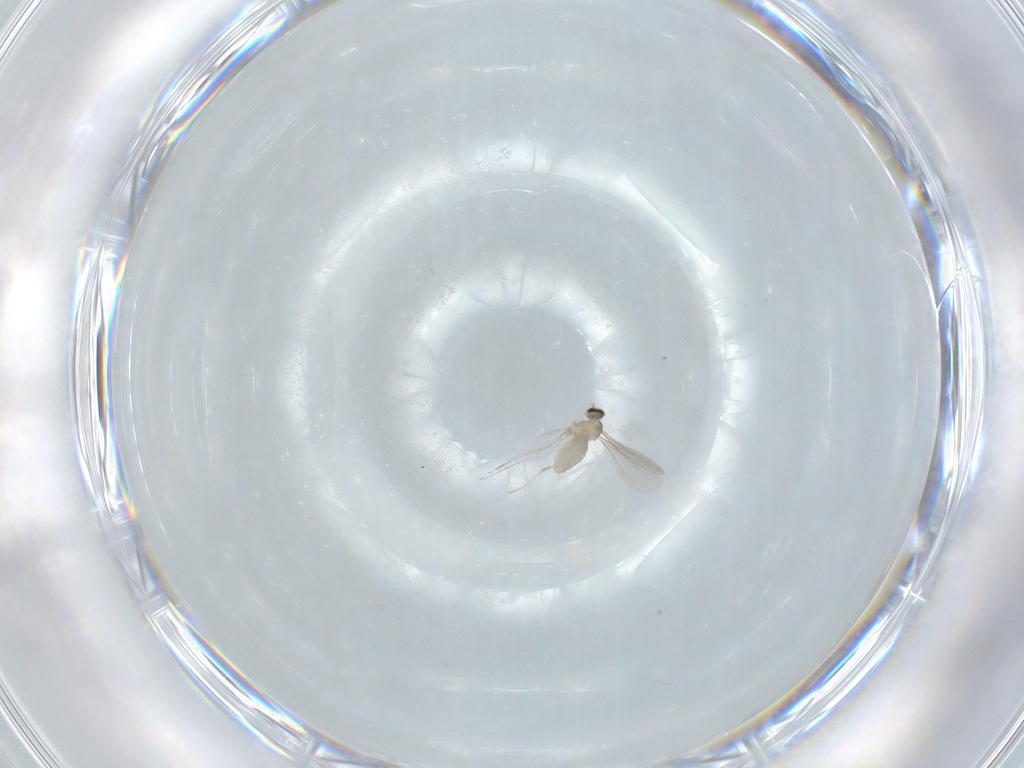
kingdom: Animalia
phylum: Arthropoda
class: Insecta
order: Diptera
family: Cecidomyiidae
